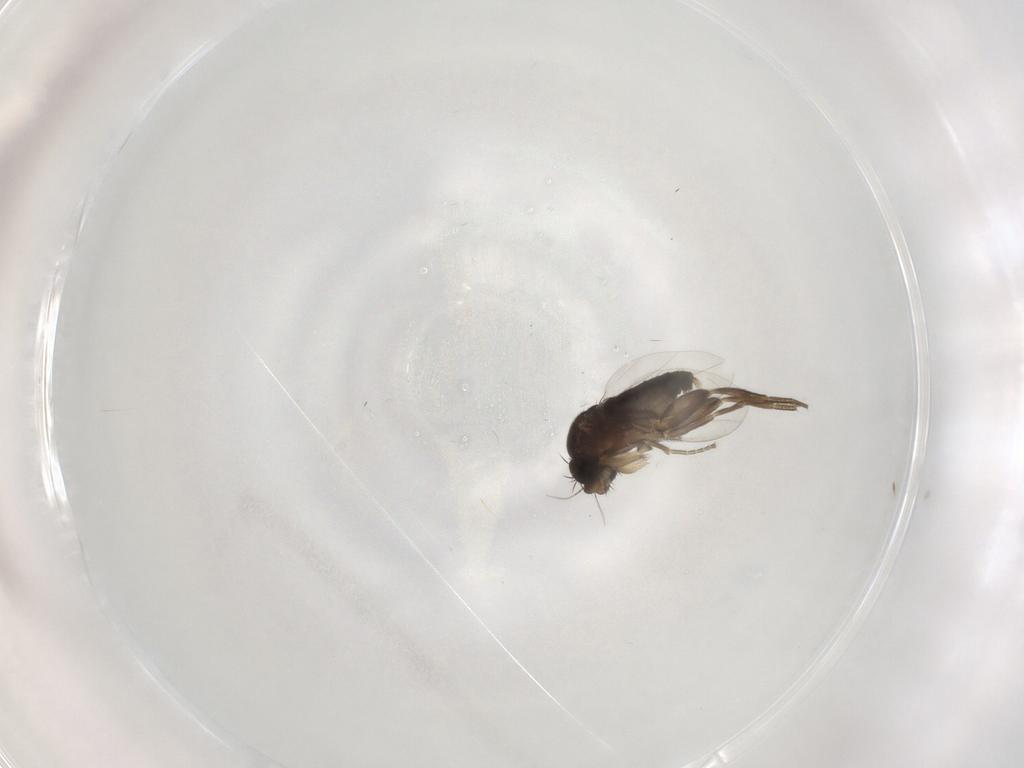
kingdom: Animalia
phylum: Arthropoda
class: Insecta
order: Diptera
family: Phoridae
